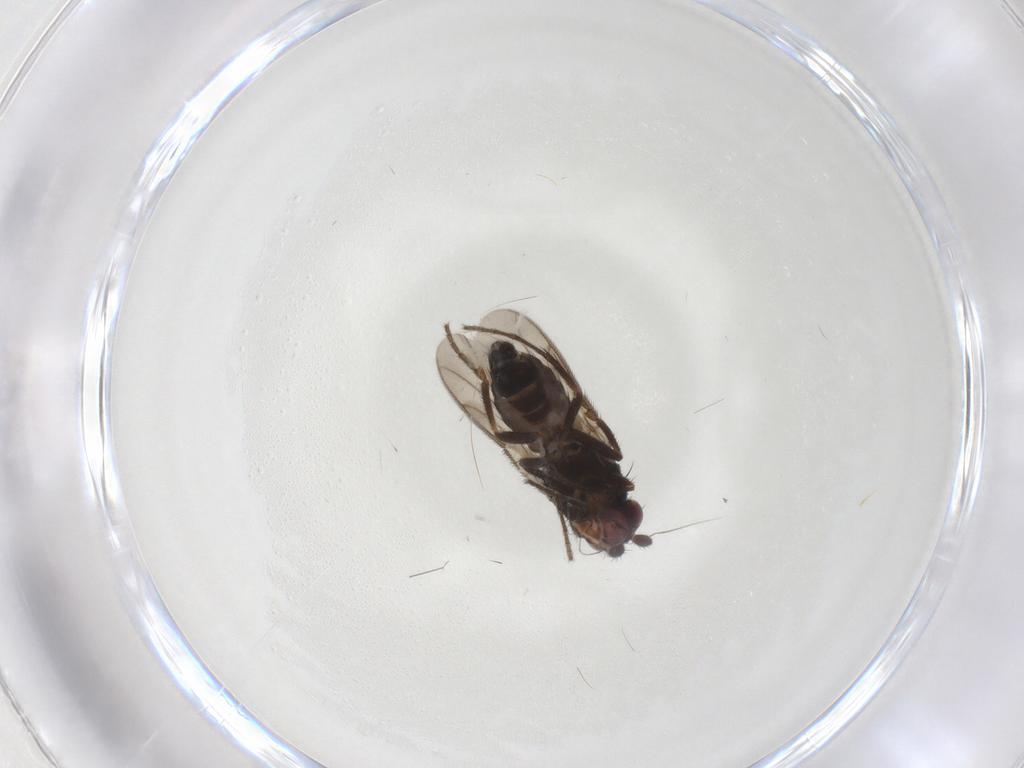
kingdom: Animalia
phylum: Arthropoda
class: Insecta
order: Diptera
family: Sphaeroceridae
